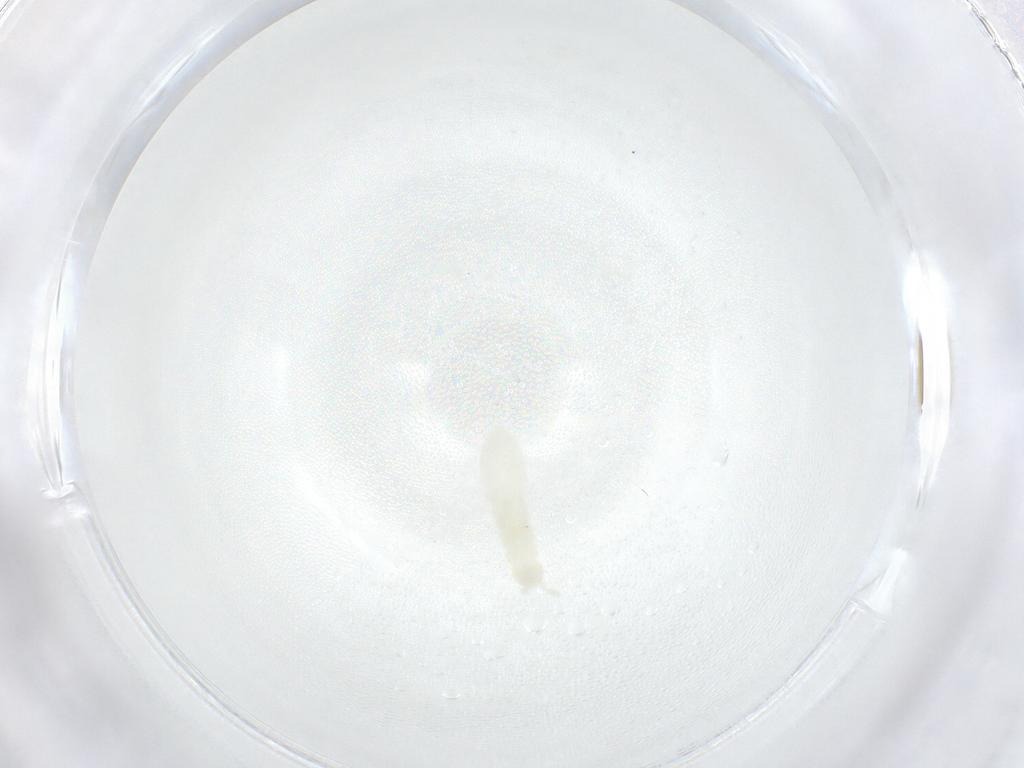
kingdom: Animalia
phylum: Arthropoda
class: Collembola
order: Poduromorpha
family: Onychiuridae
